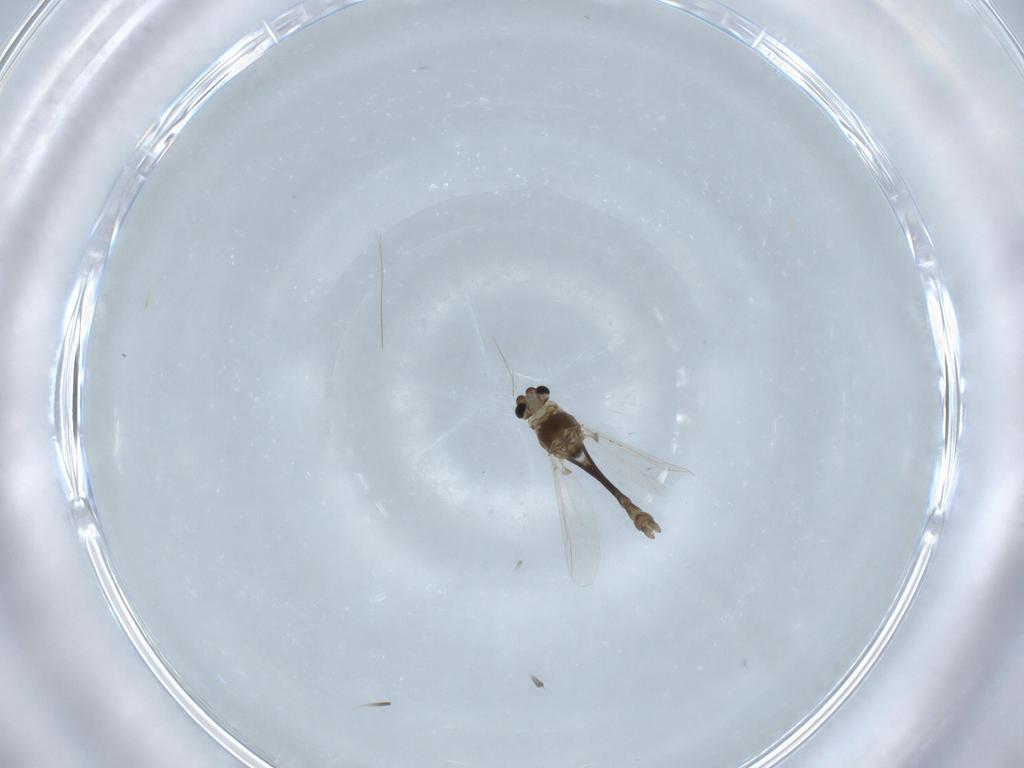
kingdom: Animalia
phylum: Arthropoda
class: Insecta
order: Diptera
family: Chironomidae
